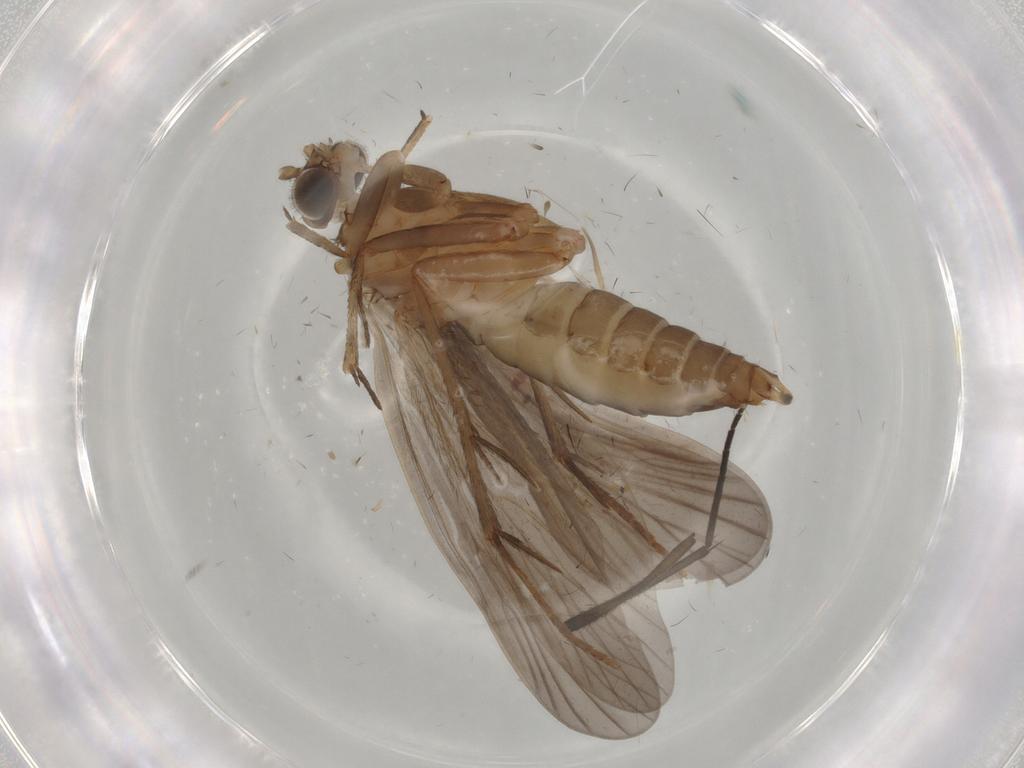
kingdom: Animalia
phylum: Arthropoda
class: Insecta
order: Trichoptera
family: Philopotamidae
